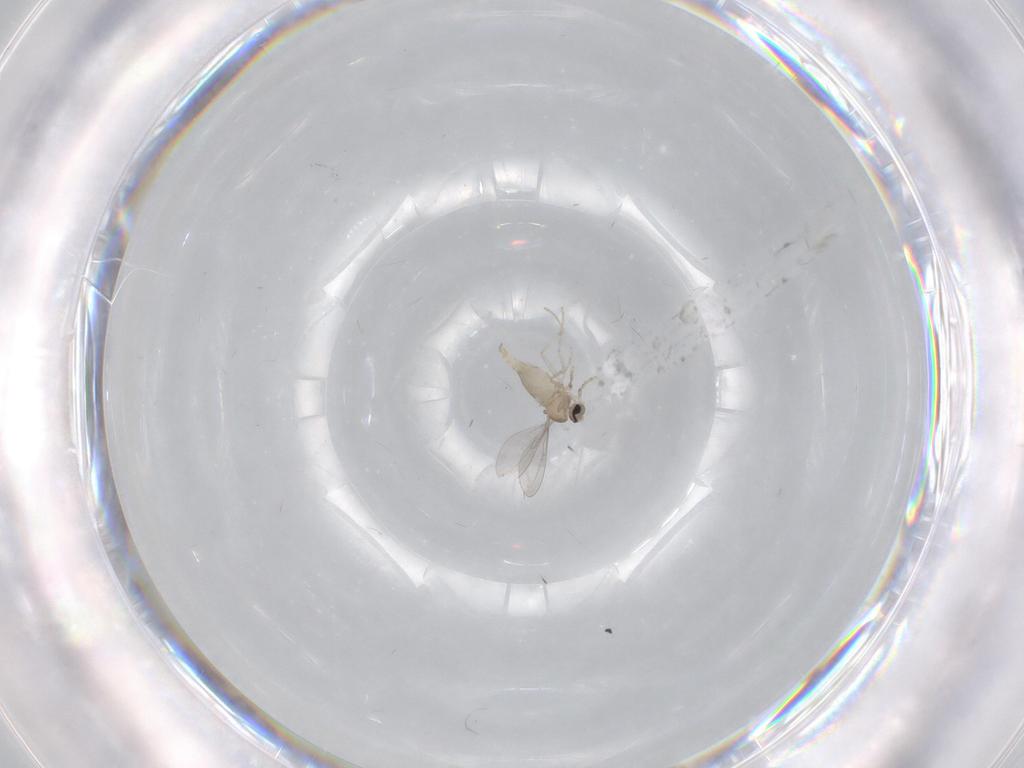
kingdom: Animalia
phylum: Arthropoda
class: Insecta
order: Diptera
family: Cecidomyiidae
